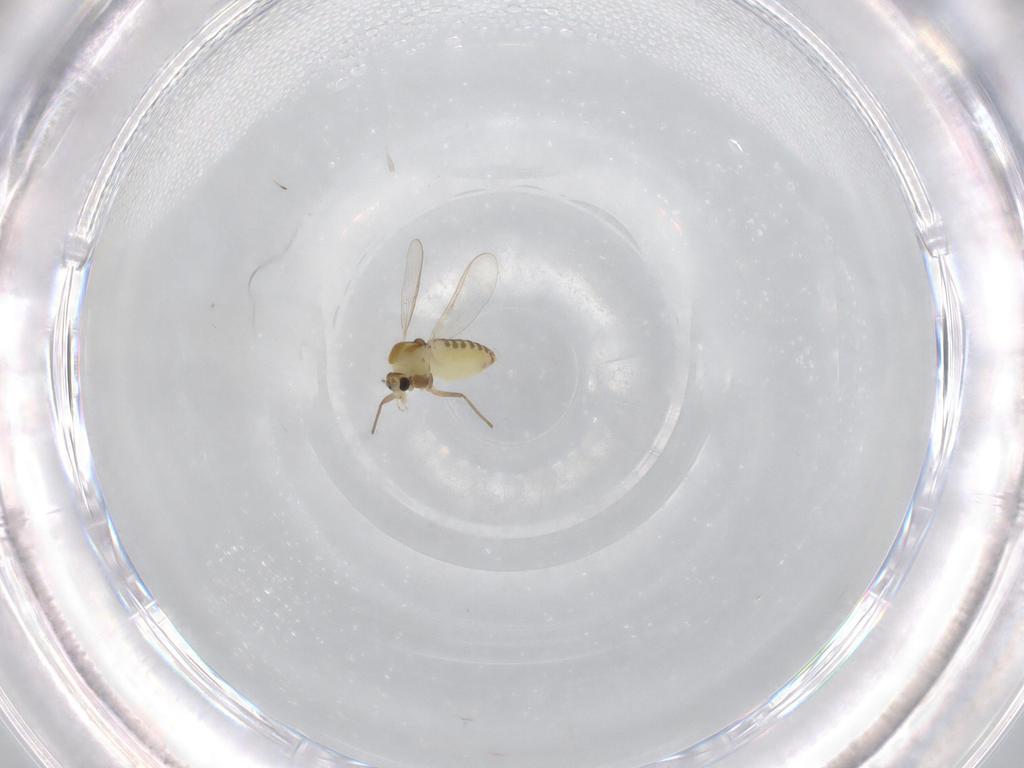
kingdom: Animalia
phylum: Arthropoda
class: Insecta
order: Diptera
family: Chironomidae
